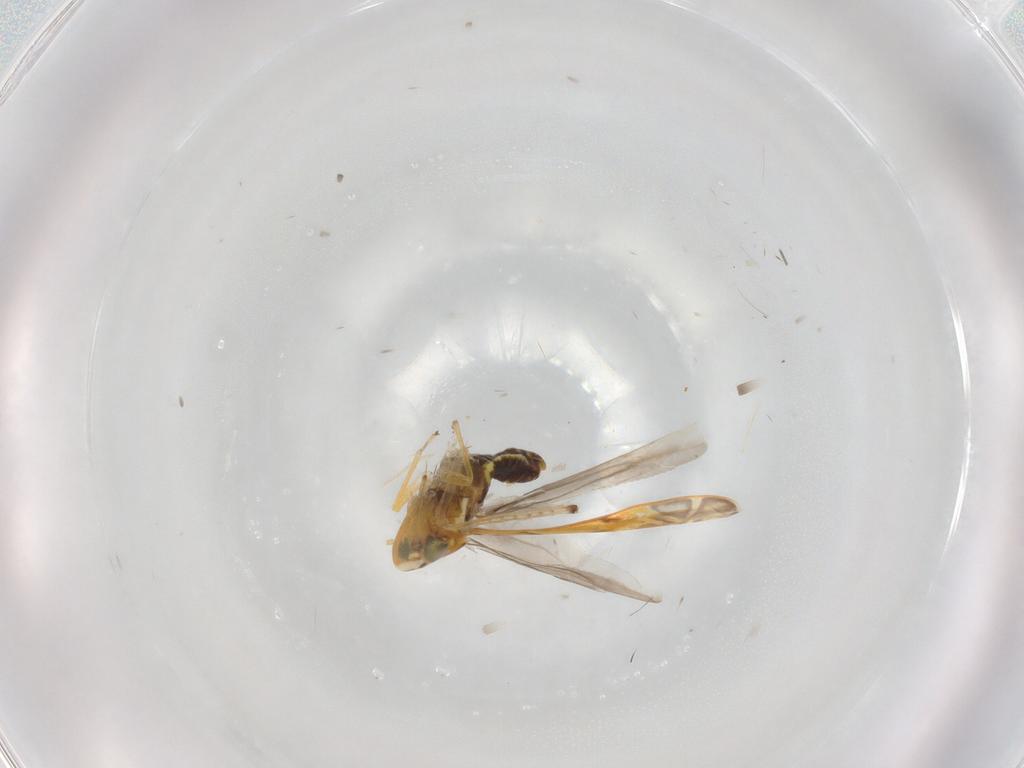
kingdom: Animalia
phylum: Arthropoda
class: Insecta
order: Hemiptera
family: Cicadellidae
